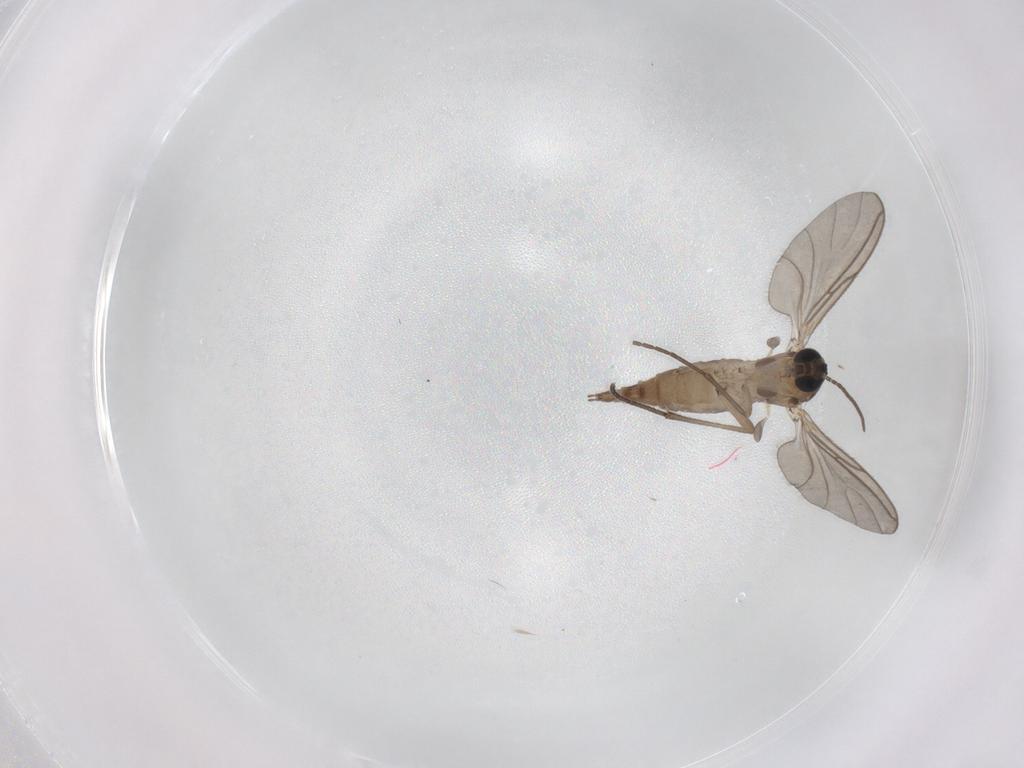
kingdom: Animalia
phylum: Arthropoda
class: Insecta
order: Diptera
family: Sciaridae
